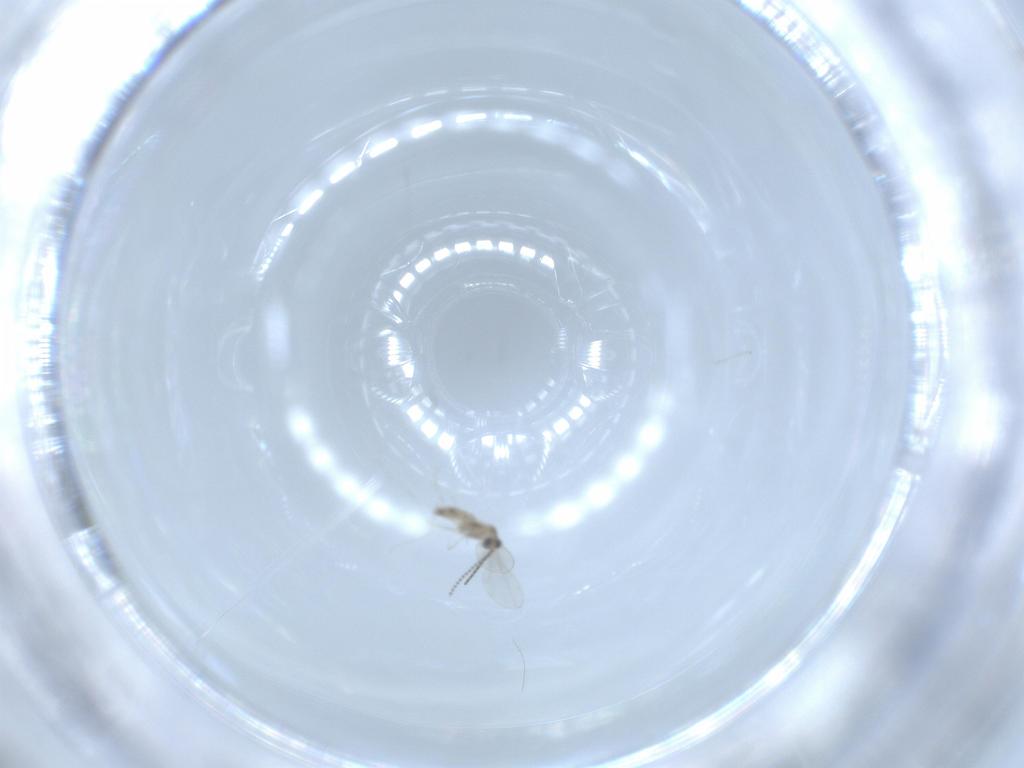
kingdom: Animalia
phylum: Arthropoda
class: Insecta
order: Diptera
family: Cecidomyiidae
